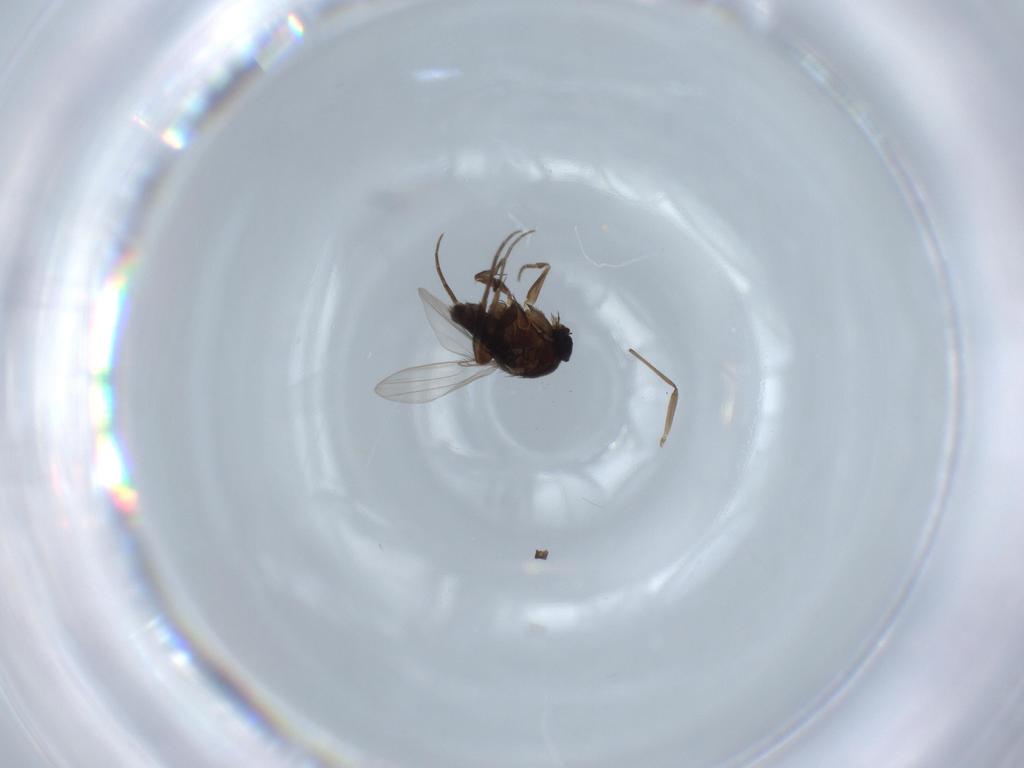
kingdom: Animalia
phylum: Arthropoda
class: Insecta
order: Diptera
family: Chironomidae
